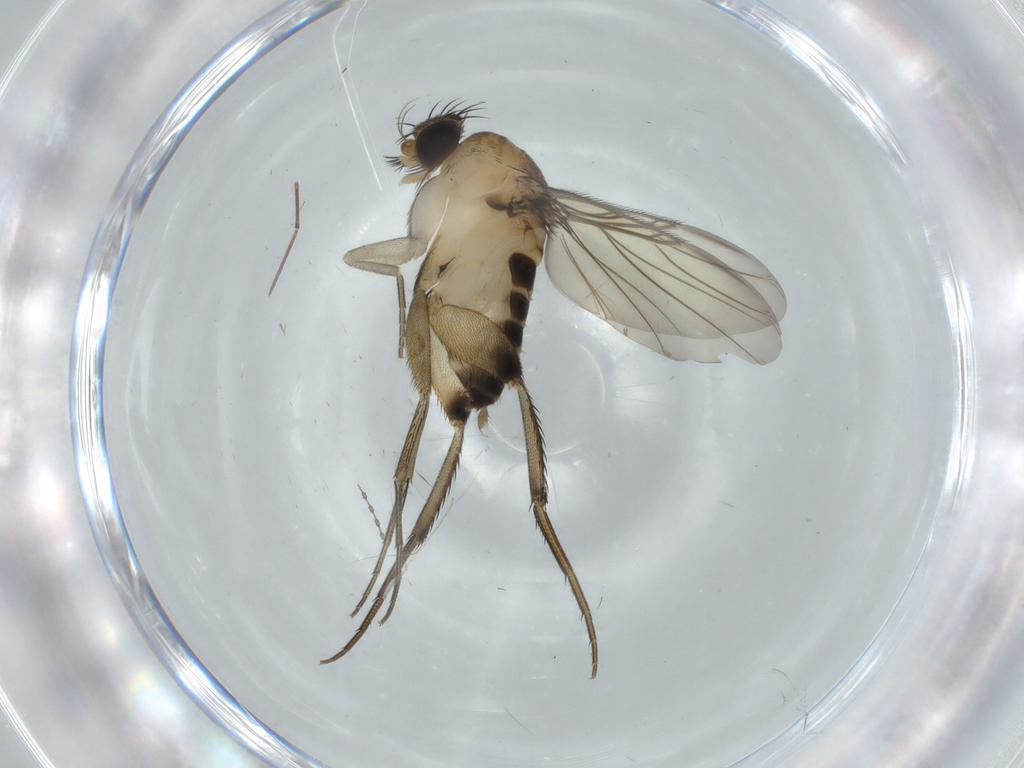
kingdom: Animalia
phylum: Arthropoda
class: Insecta
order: Diptera
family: Phoridae
